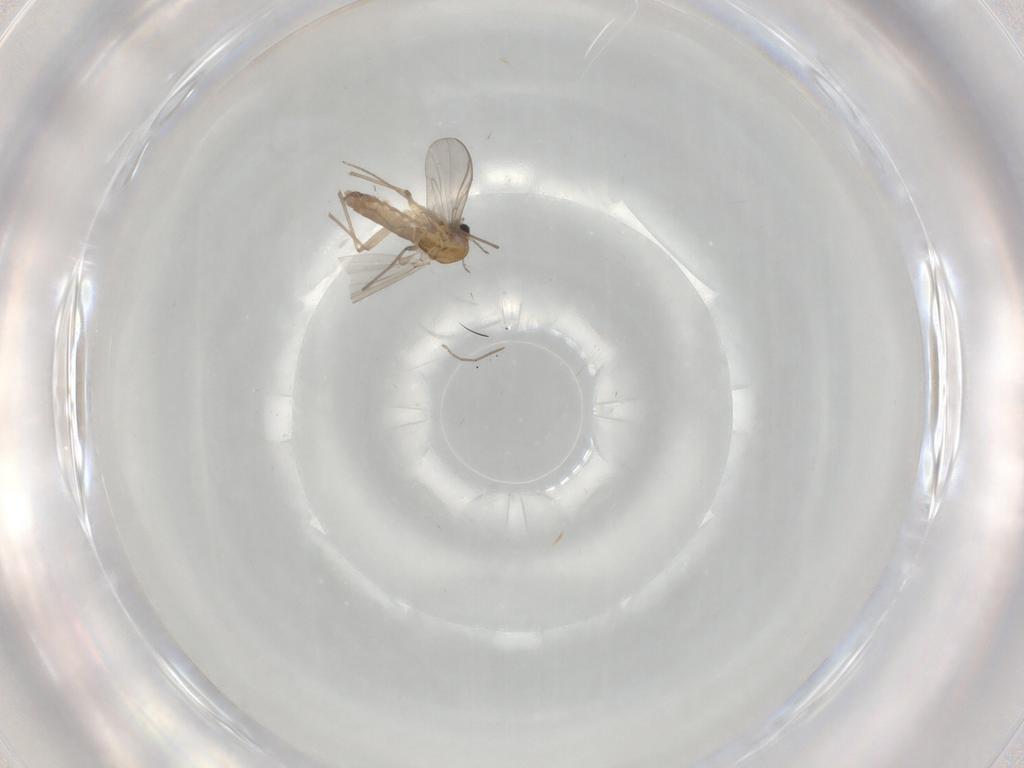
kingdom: Animalia
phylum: Arthropoda
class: Insecta
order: Diptera
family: Chironomidae
